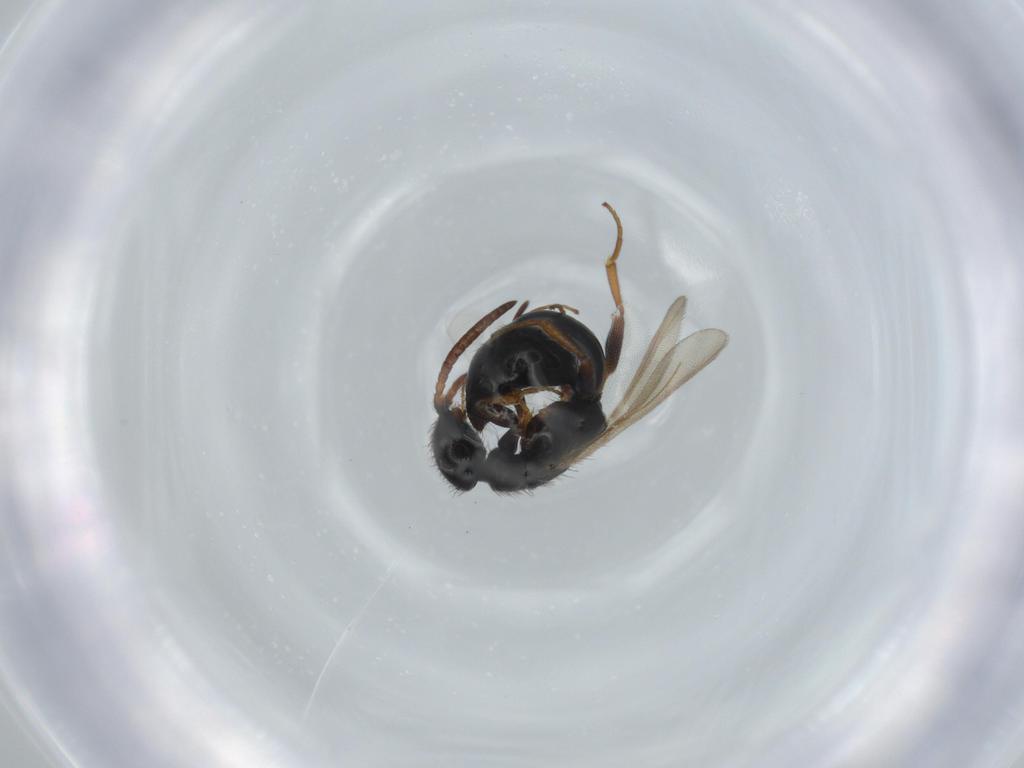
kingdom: Animalia
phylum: Arthropoda
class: Insecta
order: Hymenoptera
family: Bethylidae
